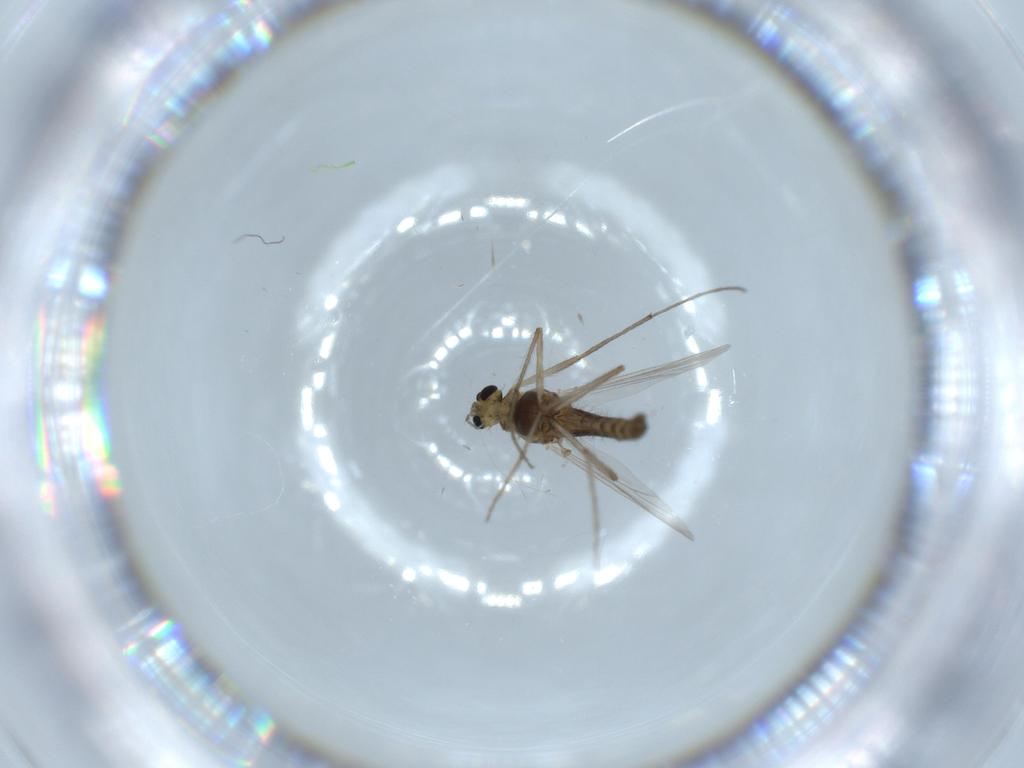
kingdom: Animalia
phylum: Arthropoda
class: Insecta
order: Diptera
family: Chironomidae
